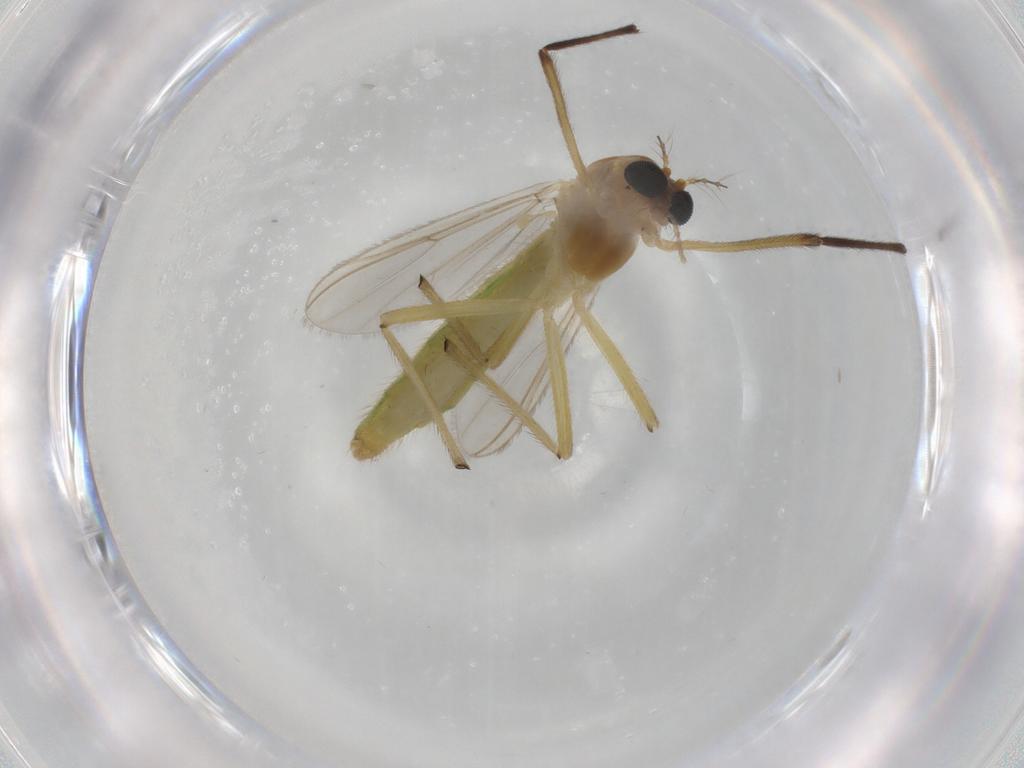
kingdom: Animalia
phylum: Arthropoda
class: Insecta
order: Diptera
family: Chironomidae
